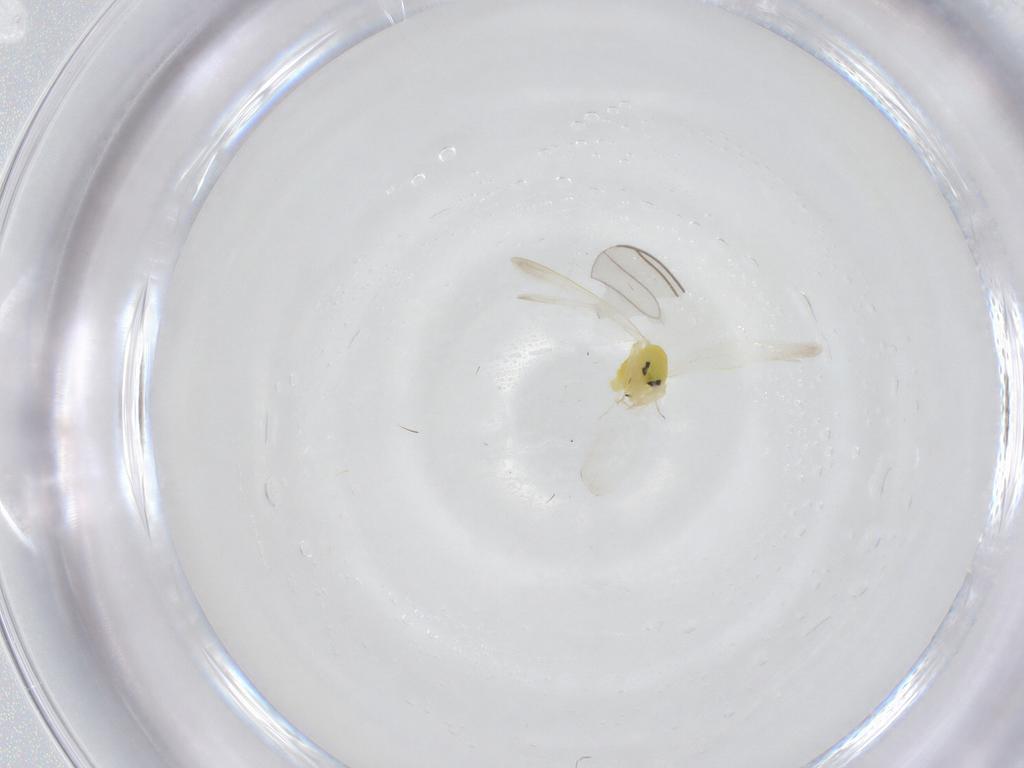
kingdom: Animalia
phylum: Arthropoda
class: Insecta
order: Hemiptera
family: Aleyrodidae
